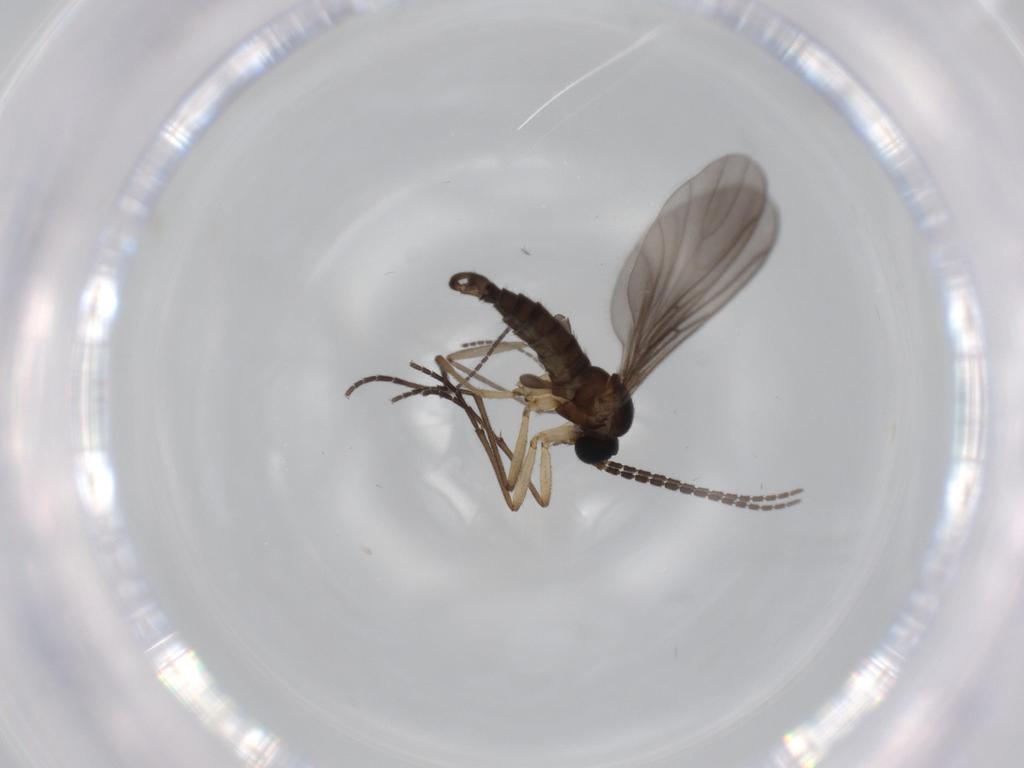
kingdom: Animalia
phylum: Arthropoda
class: Insecta
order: Diptera
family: Sciaridae
